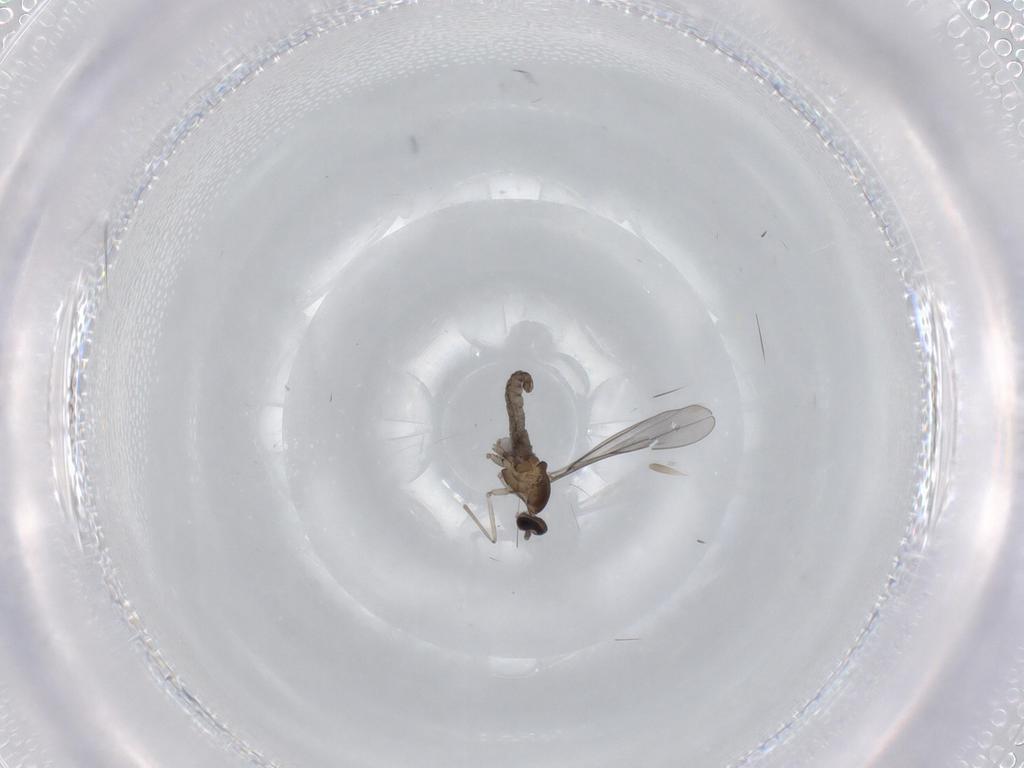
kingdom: Animalia
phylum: Arthropoda
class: Insecta
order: Diptera
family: Cecidomyiidae
